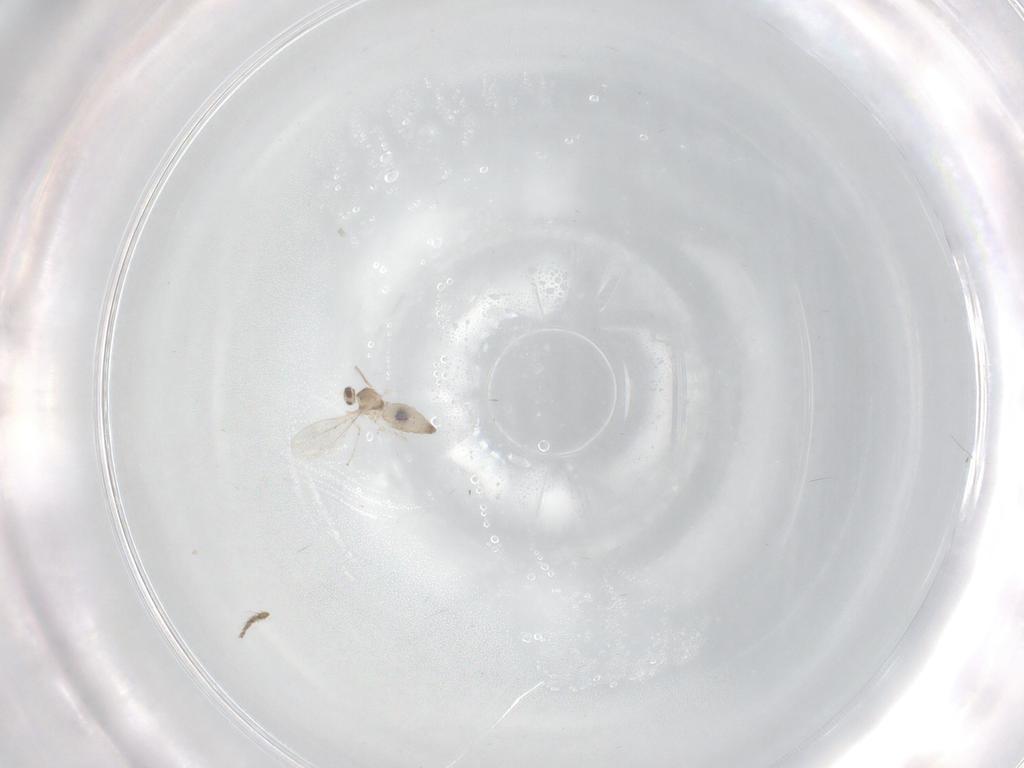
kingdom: Animalia
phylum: Arthropoda
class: Insecta
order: Diptera
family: Cecidomyiidae
